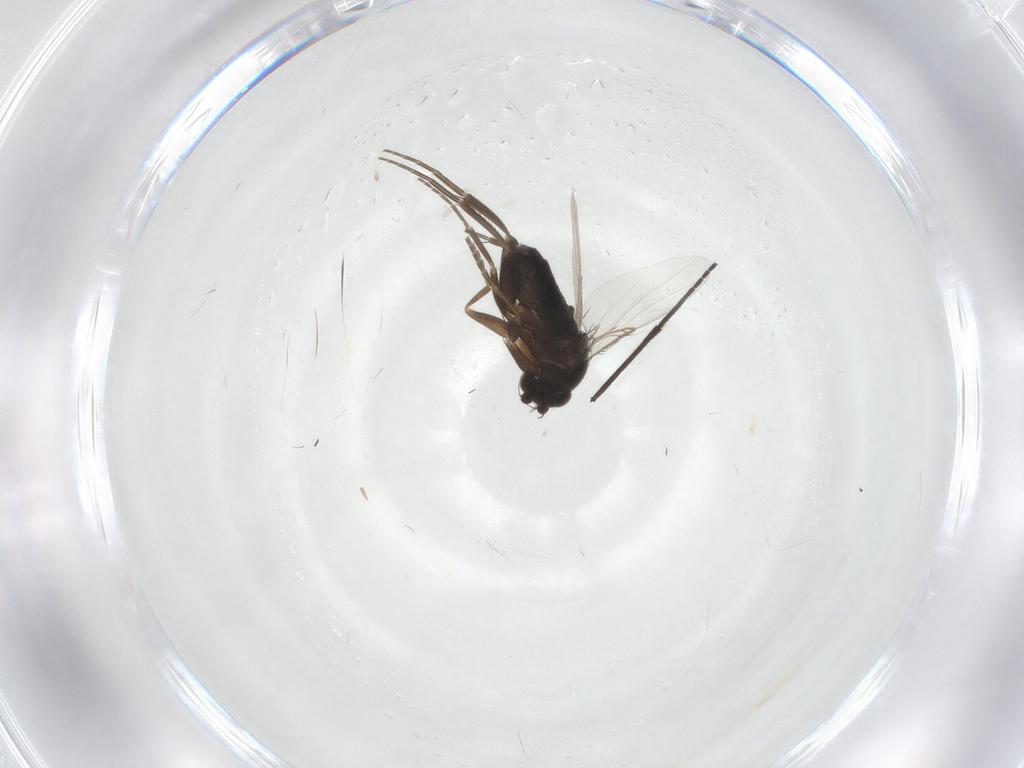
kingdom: Animalia
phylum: Arthropoda
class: Insecta
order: Diptera
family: Phoridae
